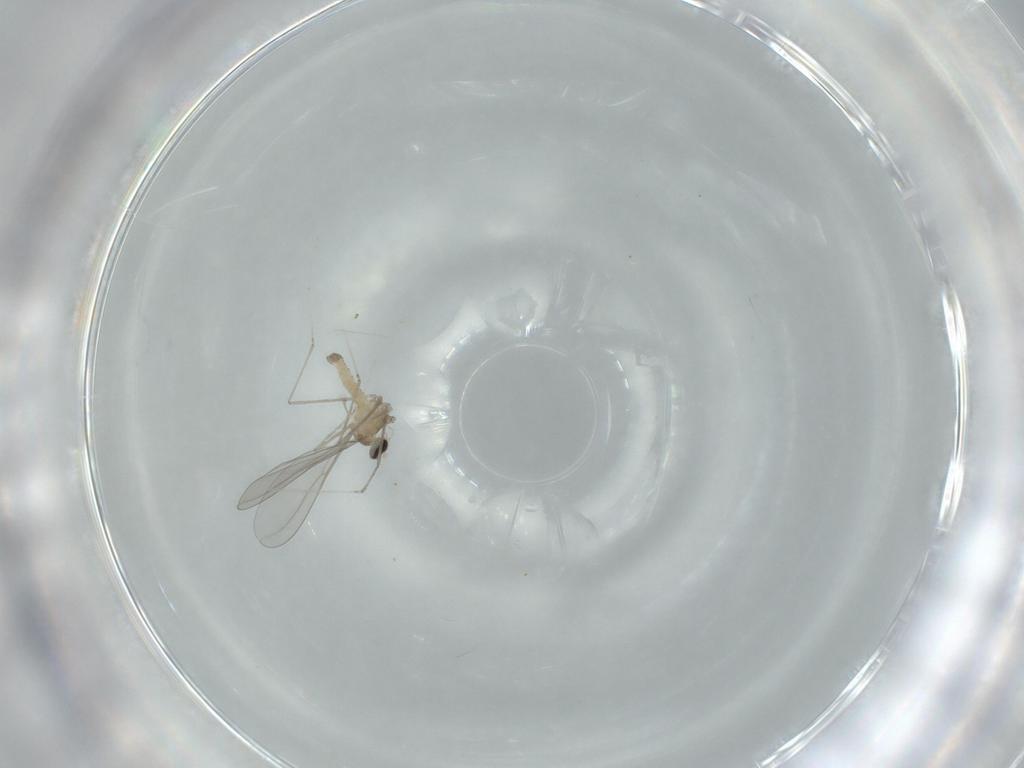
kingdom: Animalia
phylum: Arthropoda
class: Insecta
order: Diptera
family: Cecidomyiidae
